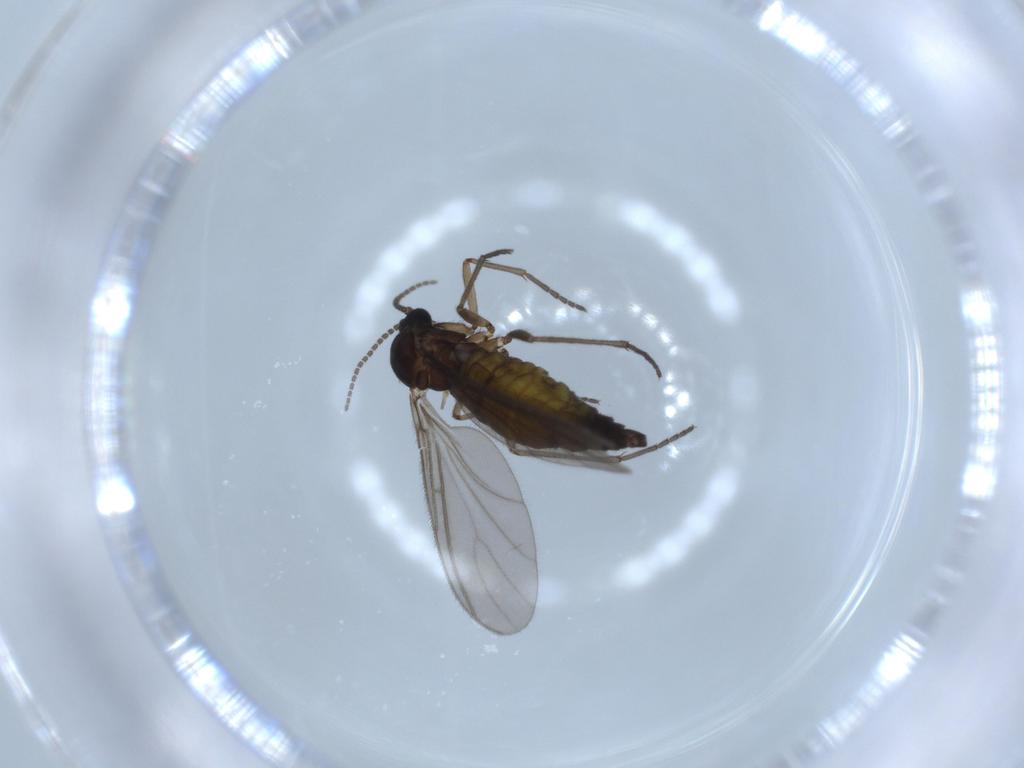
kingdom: Animalia
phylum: Arthropoda
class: Insecta
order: Diptera
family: Sciaridae
